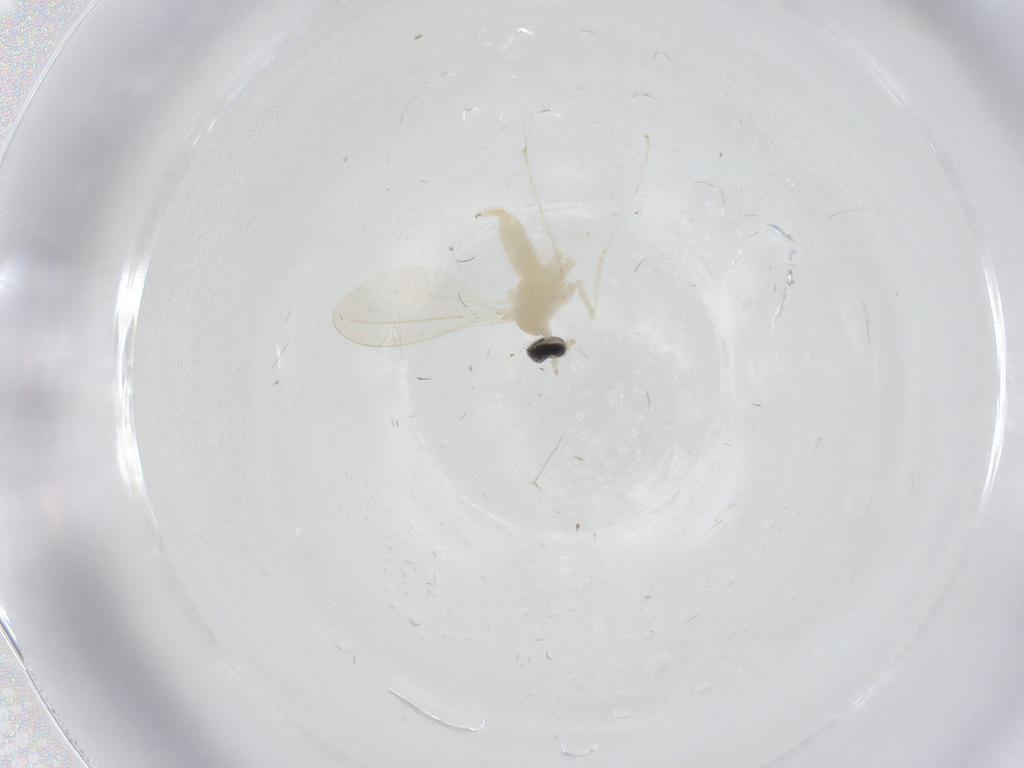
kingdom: Animalia
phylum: Arthropoda
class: Insecta
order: Diptera
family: Cecidomyiidae
